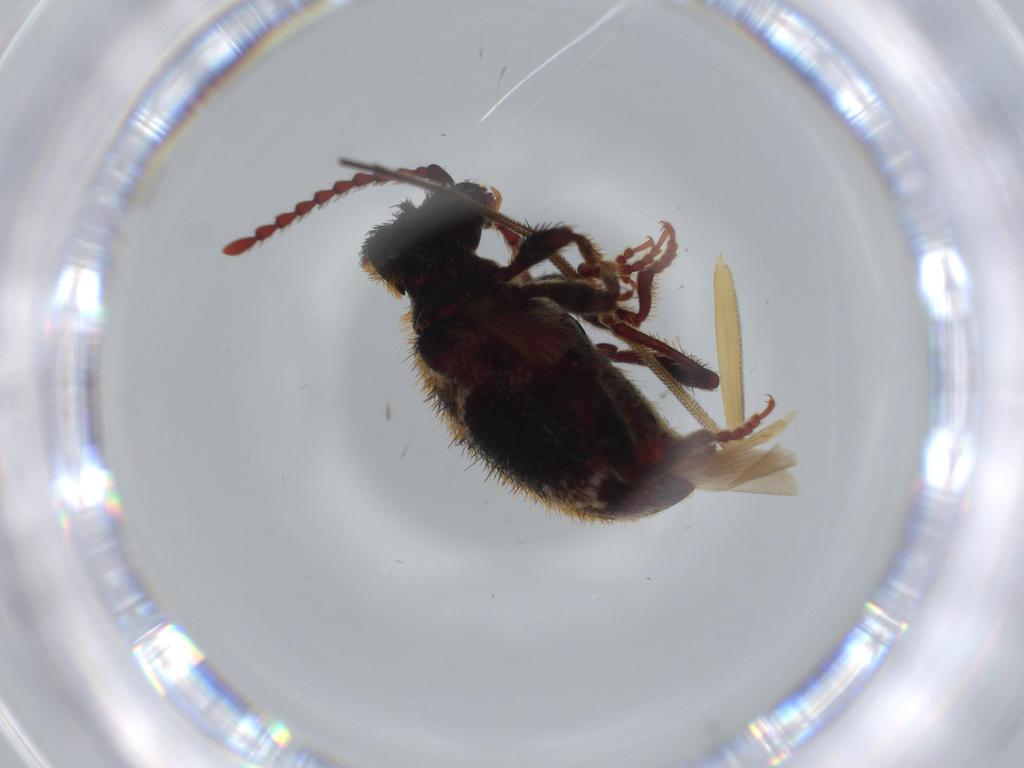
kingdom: Animalia
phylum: Arthropoda
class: Insecta
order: Coleoptera
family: Ptinidae
